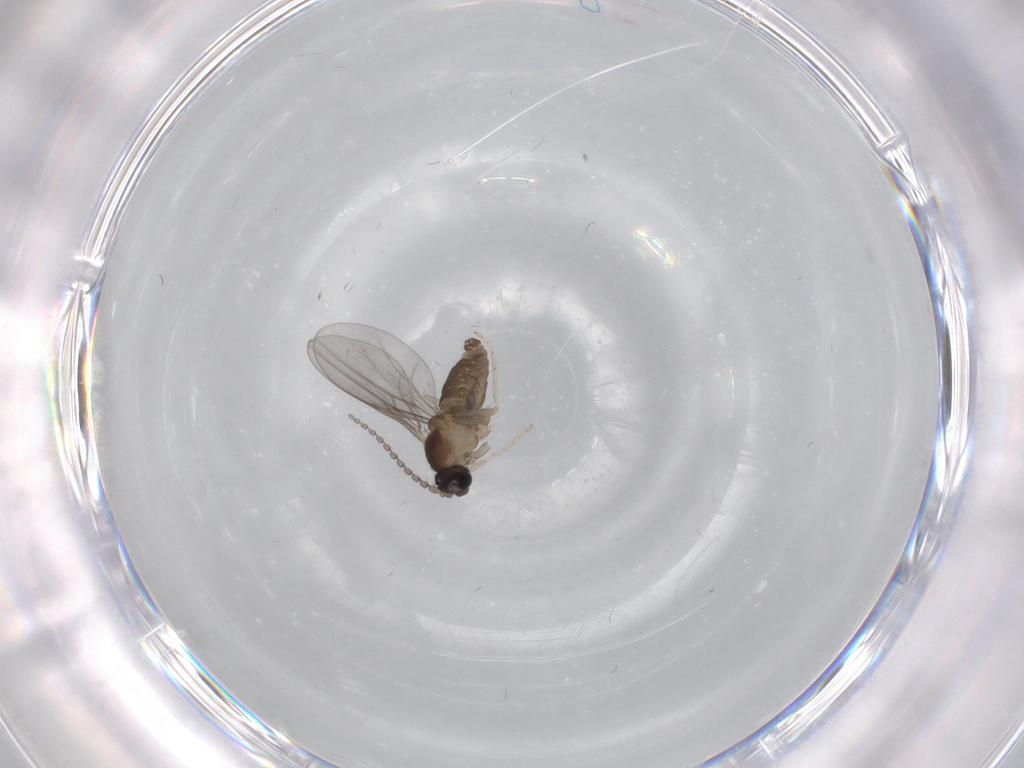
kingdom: Animalia
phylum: Arthropoda
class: Insecta
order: Diptera
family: Cecidomyiidae
